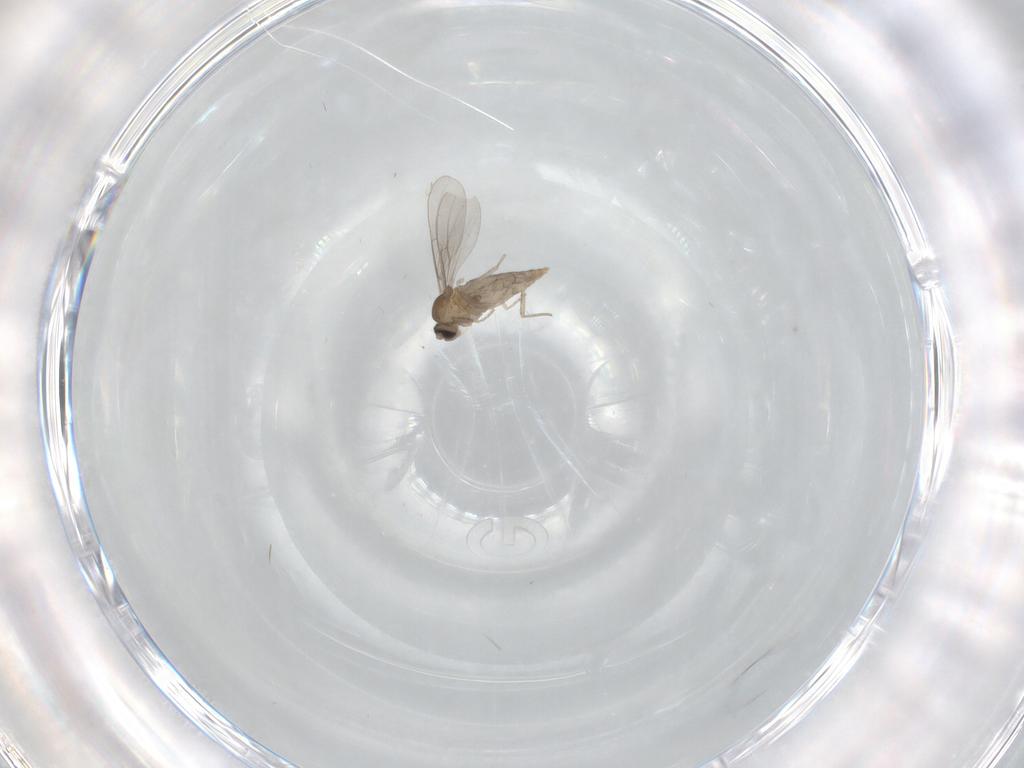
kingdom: Animalia
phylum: Arthropoda
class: Insecta
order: Diptera
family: Cecidomyiidae
